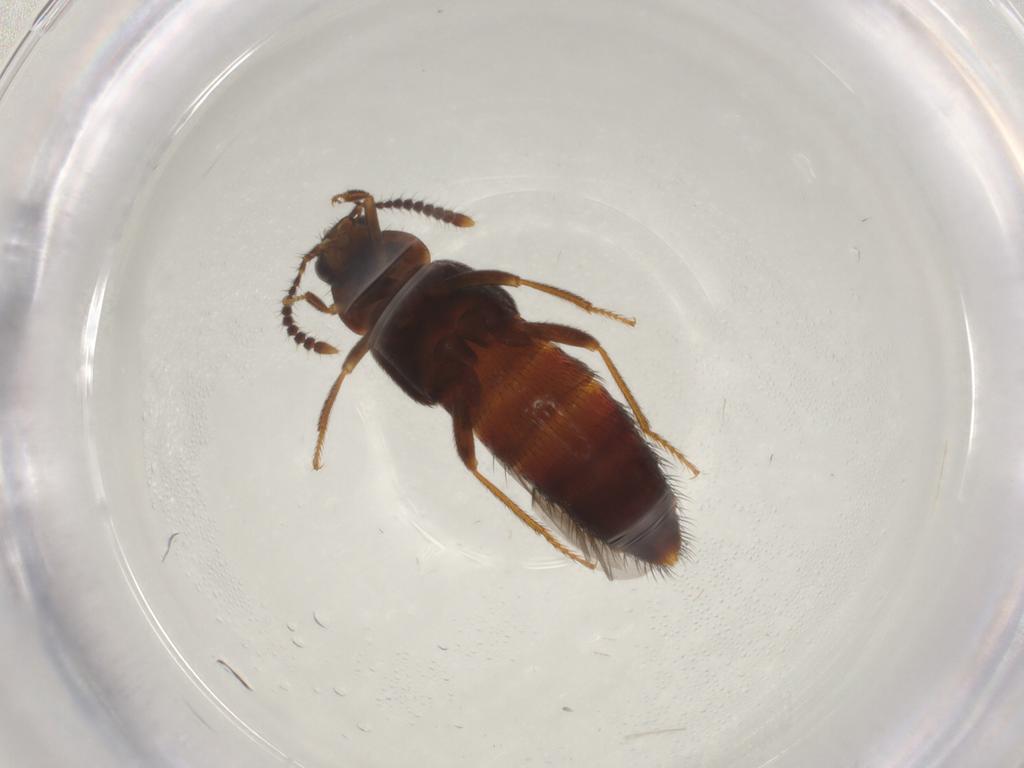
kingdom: Animalia
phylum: Arthropoda
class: Insecta
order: Coleoptera
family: Staphylinidae
